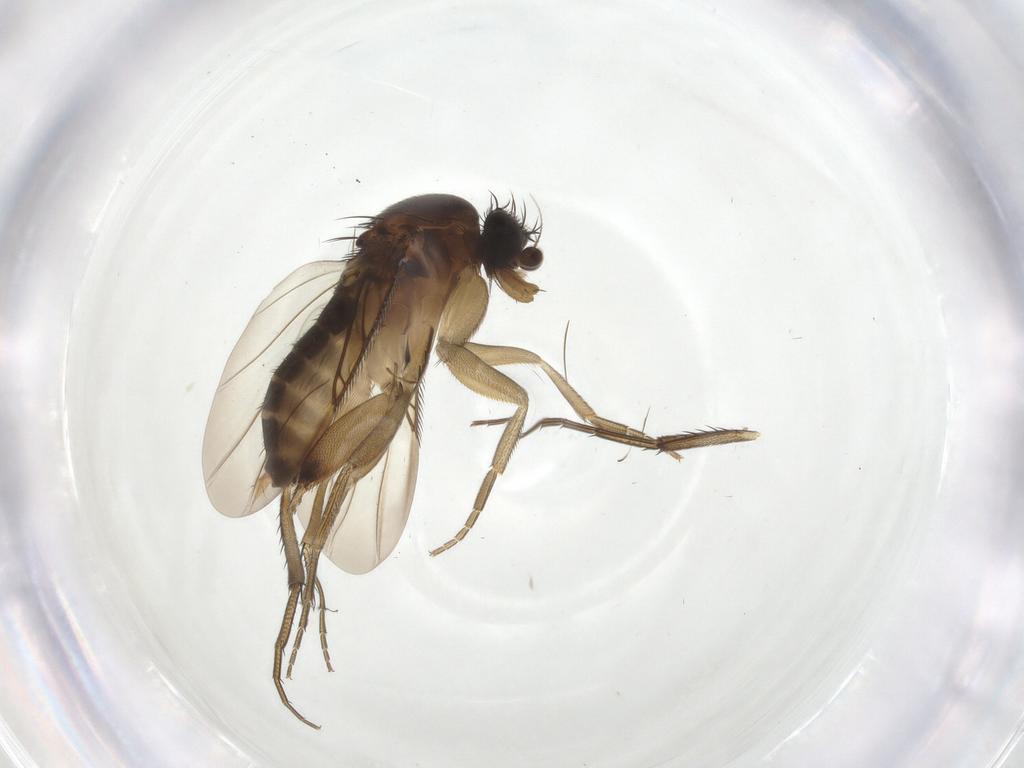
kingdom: Animalia
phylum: Arthropoda
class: Insecta
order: Diptera
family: Phoridae
